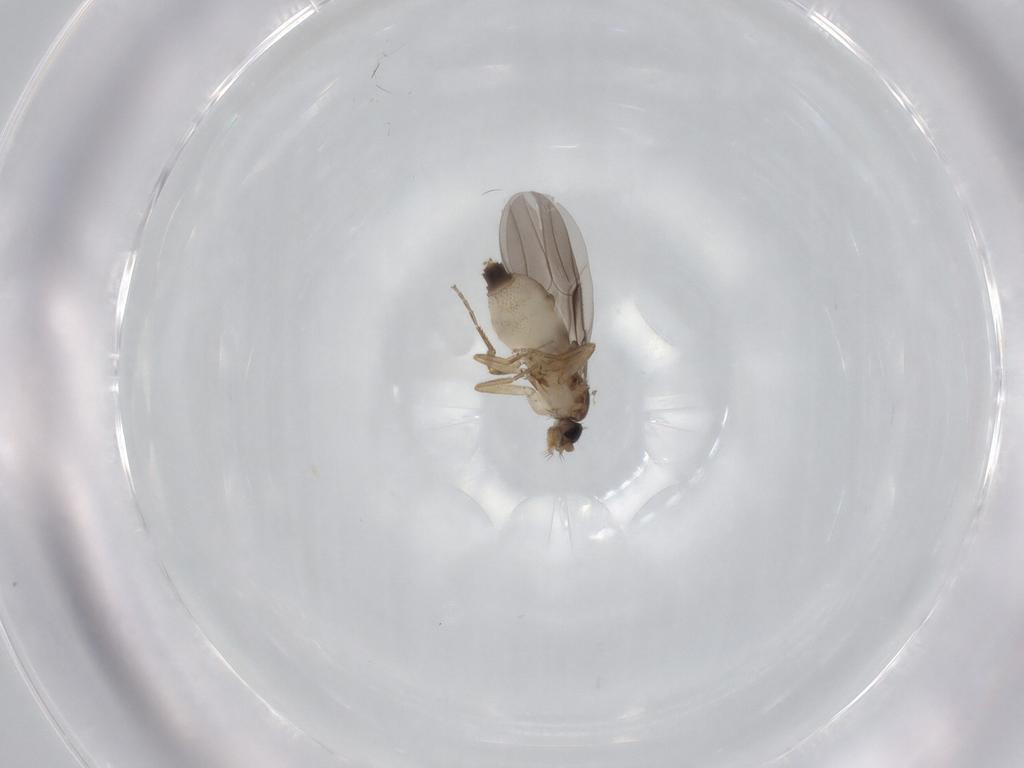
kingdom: Animalia
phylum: Arthropoda
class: Insecta
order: Diptera
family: Phoridae
